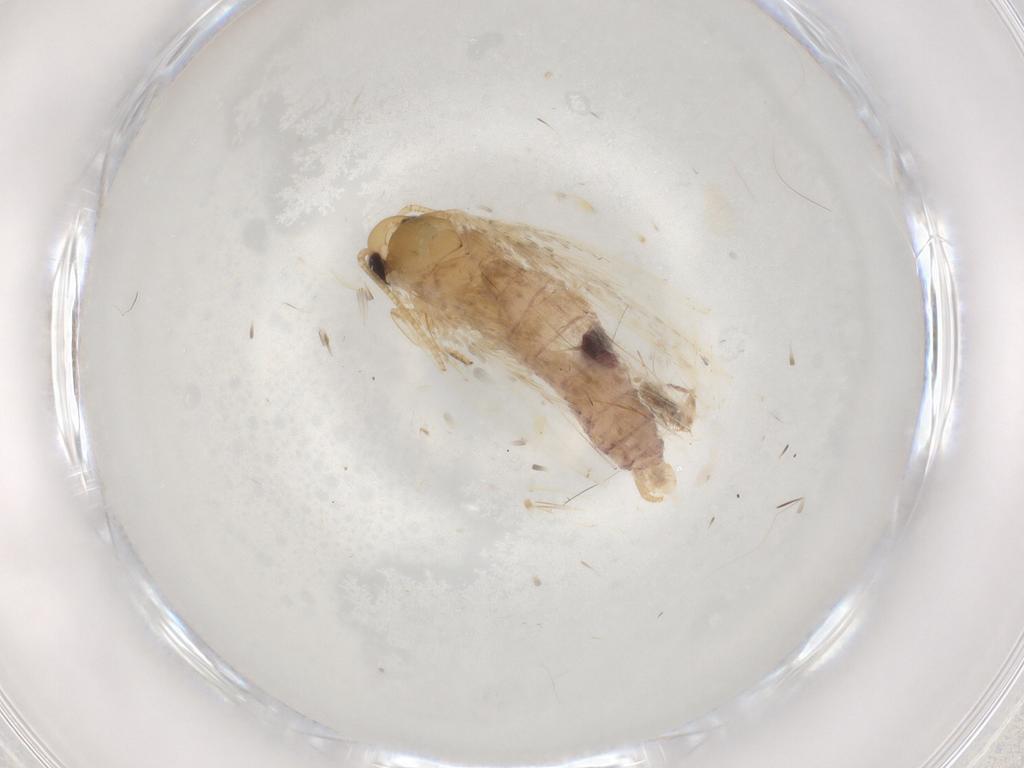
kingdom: Animalia
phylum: Arthropoda
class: Insecta
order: Lepidoptera
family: Depressariidae
